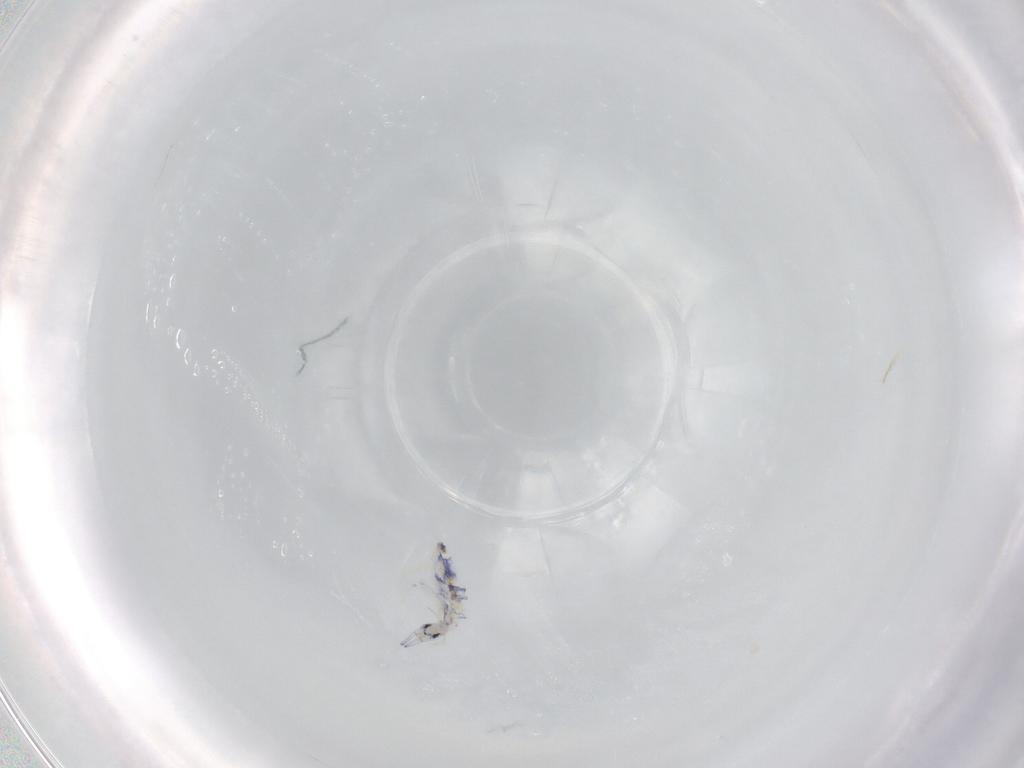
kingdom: Animalia
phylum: Arthropoda
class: Collembola
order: Entomobryomorpha
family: Entomobryidae
